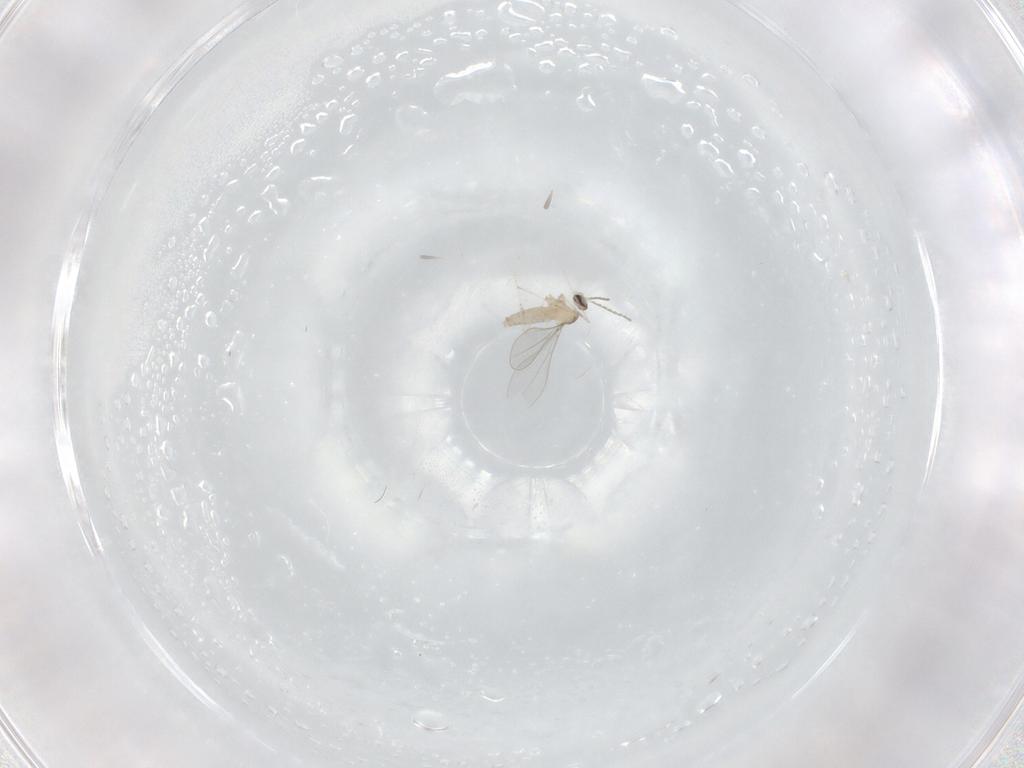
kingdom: Animalia
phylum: Arthropoda
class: Insecta
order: Diptera
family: Cecidomyiidae
